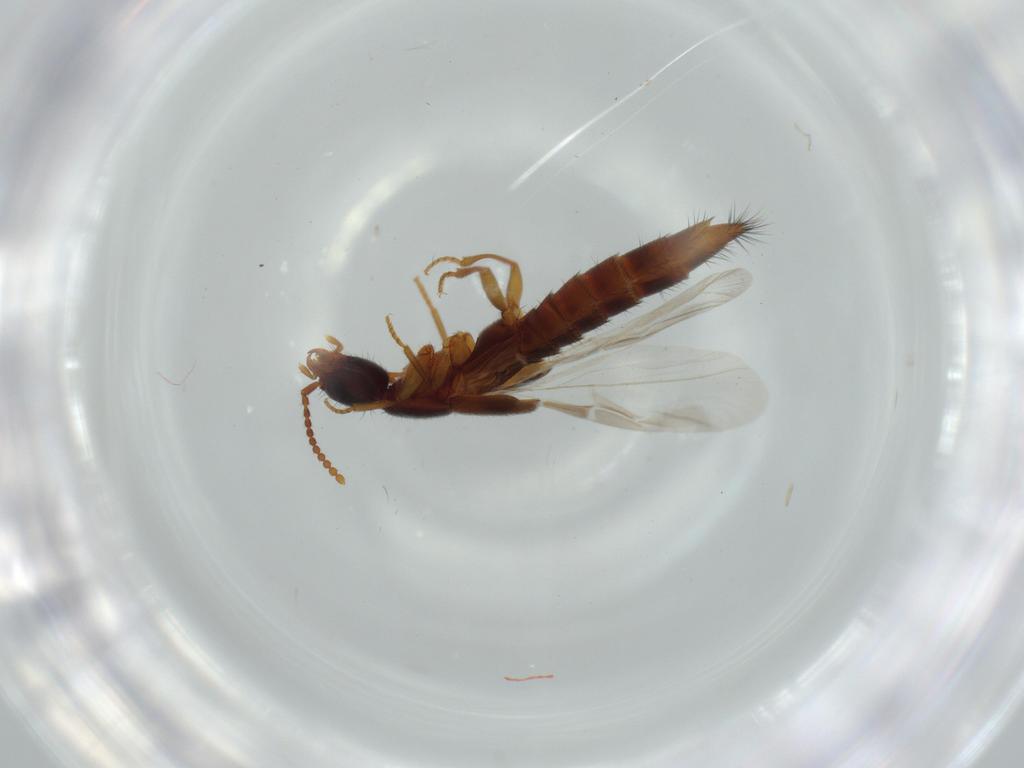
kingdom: Animalia
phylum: Arthropoda
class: Insecta
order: Coleoptera
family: Staphylinidae
